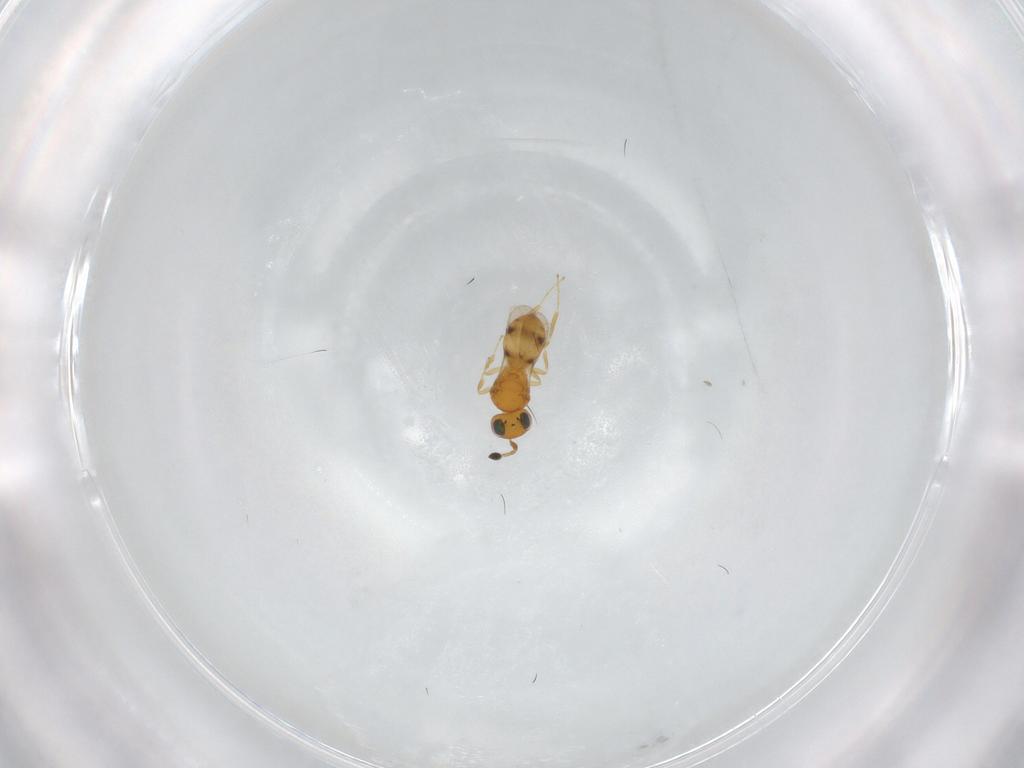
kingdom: Animalia
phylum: Arthropoda
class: Insecta
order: Hymenoptera
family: Scelionidae
